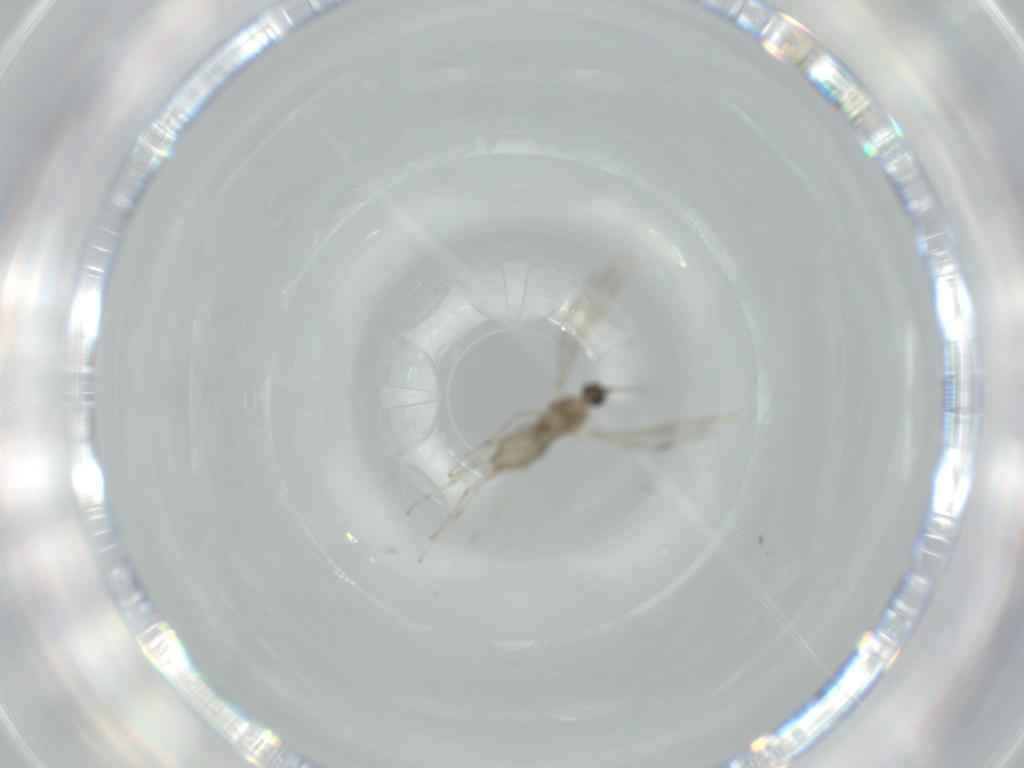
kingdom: Animalia
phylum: Arthropoda
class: Insecta
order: Diptera
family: Cecidomyiidae
